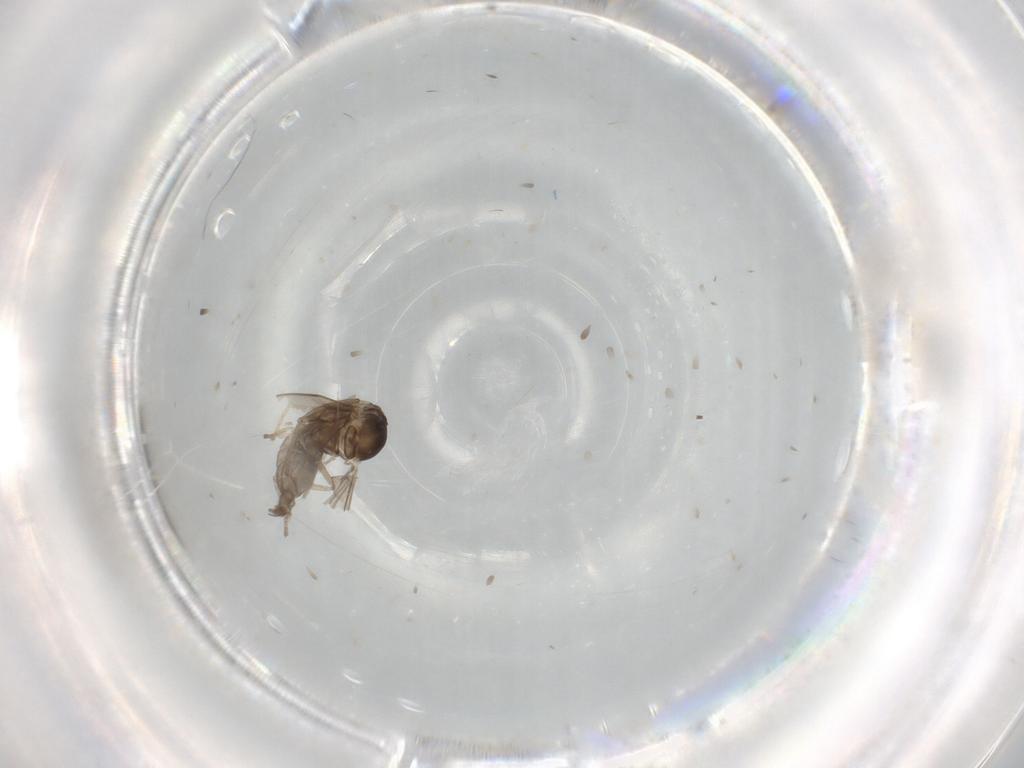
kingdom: Animalia
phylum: Arthropoda
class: Insecta
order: Diptera
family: Cecidomyiidae
